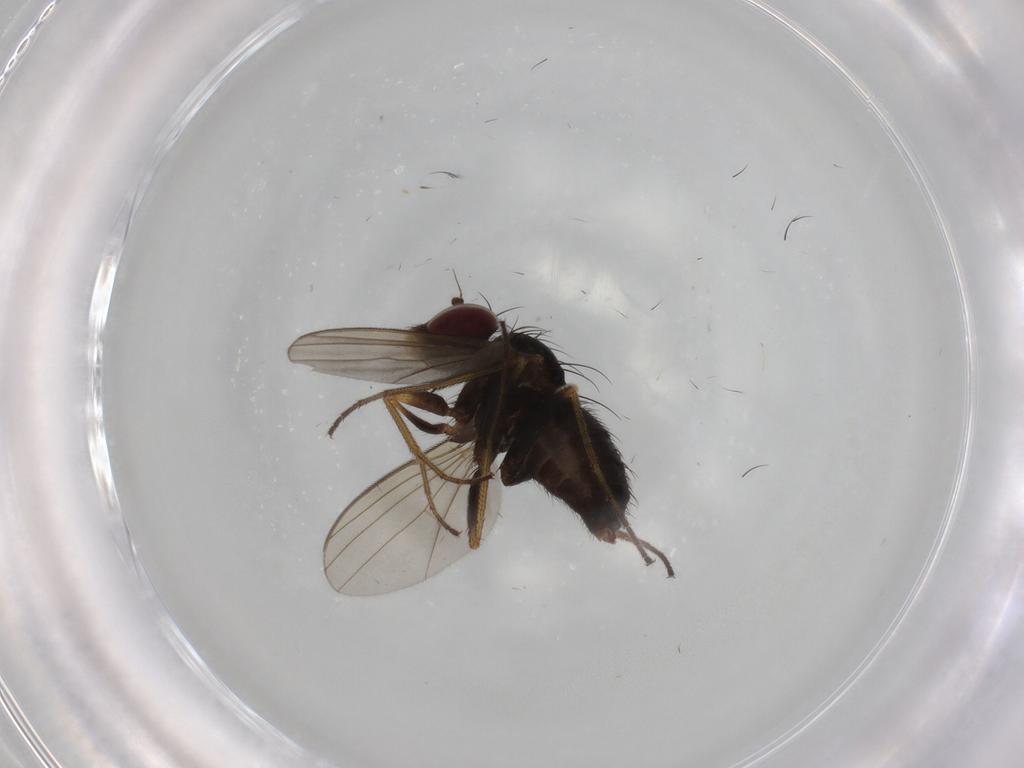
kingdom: Animalia
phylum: Arthropoda
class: Insecta
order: Diptera
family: Dolichopodidae
